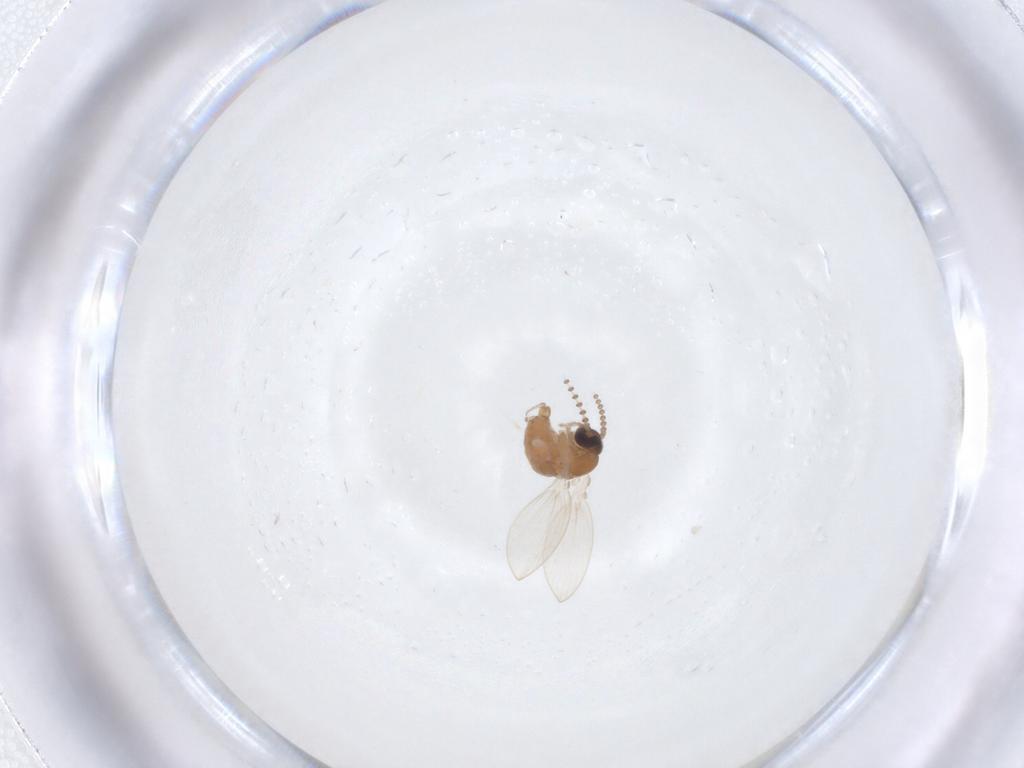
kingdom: Animalia
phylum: Arthropoda
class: Insecta
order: Diptera
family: Psychodidae
